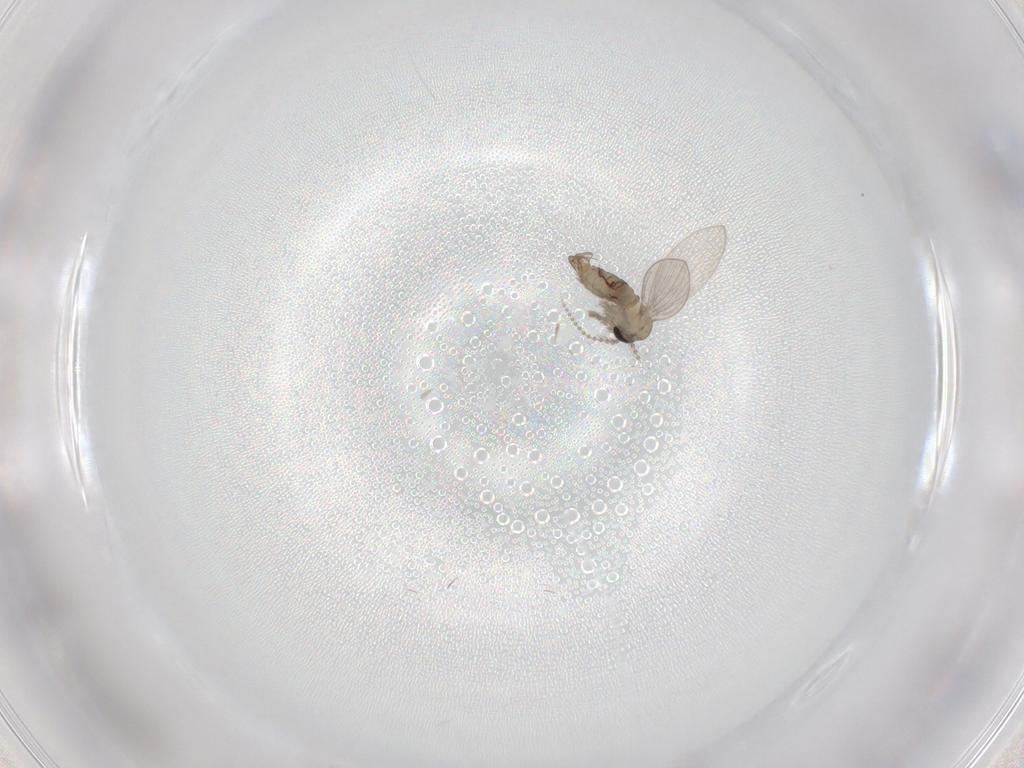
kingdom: Animalia
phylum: Arthropoda
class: Insecta
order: Diptera
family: Psychodidae
